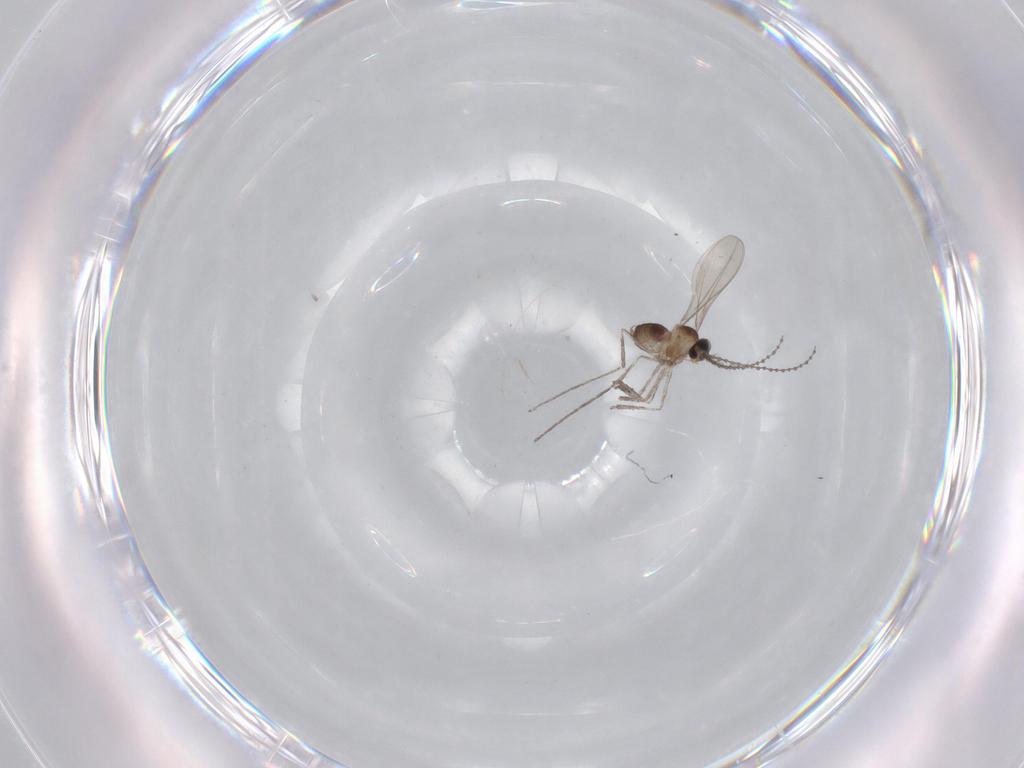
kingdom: Animalia
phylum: Arthropoda
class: Insecta
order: Diptera
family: Cecidomyiidae
